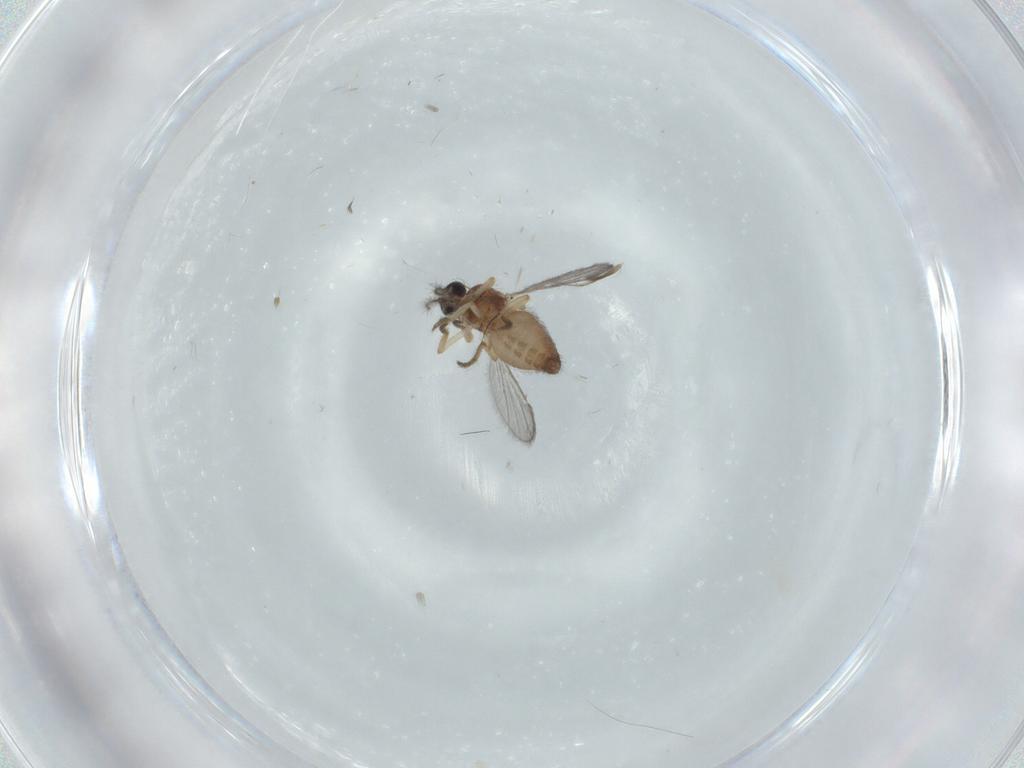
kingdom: Animalia
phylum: Arthropoda
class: Insecta
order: Diptera
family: Ceratopogonidae
